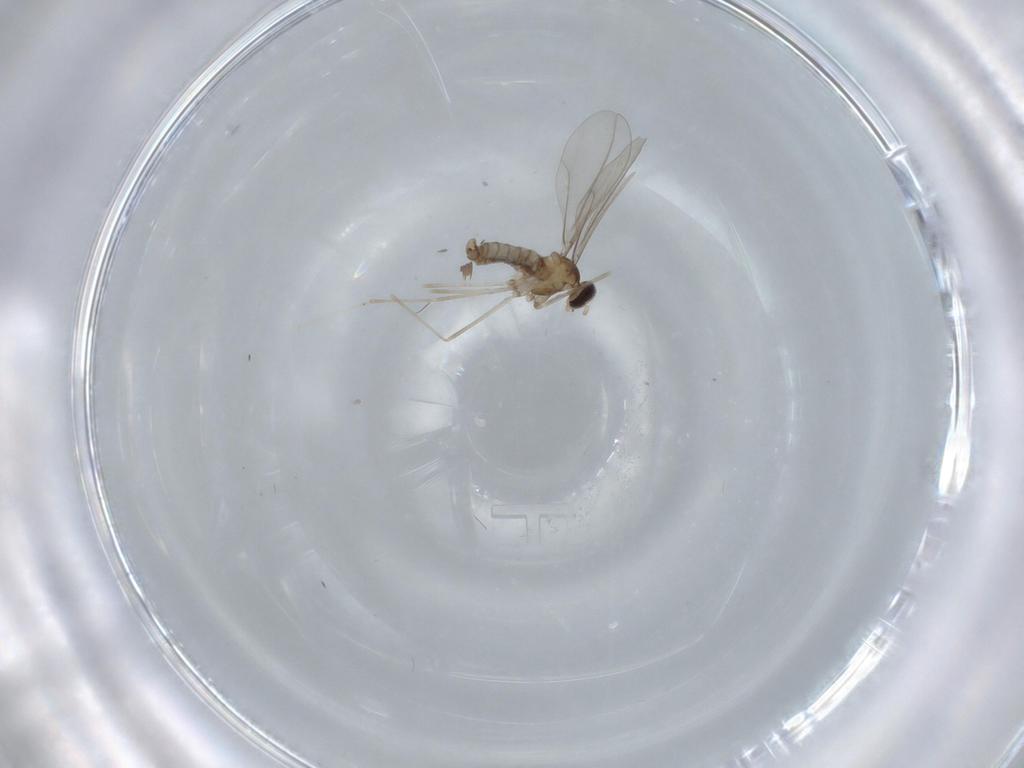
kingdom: Animalia
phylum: Arthropoda
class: Insecta
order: Diptera
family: Cecidomyiidae
